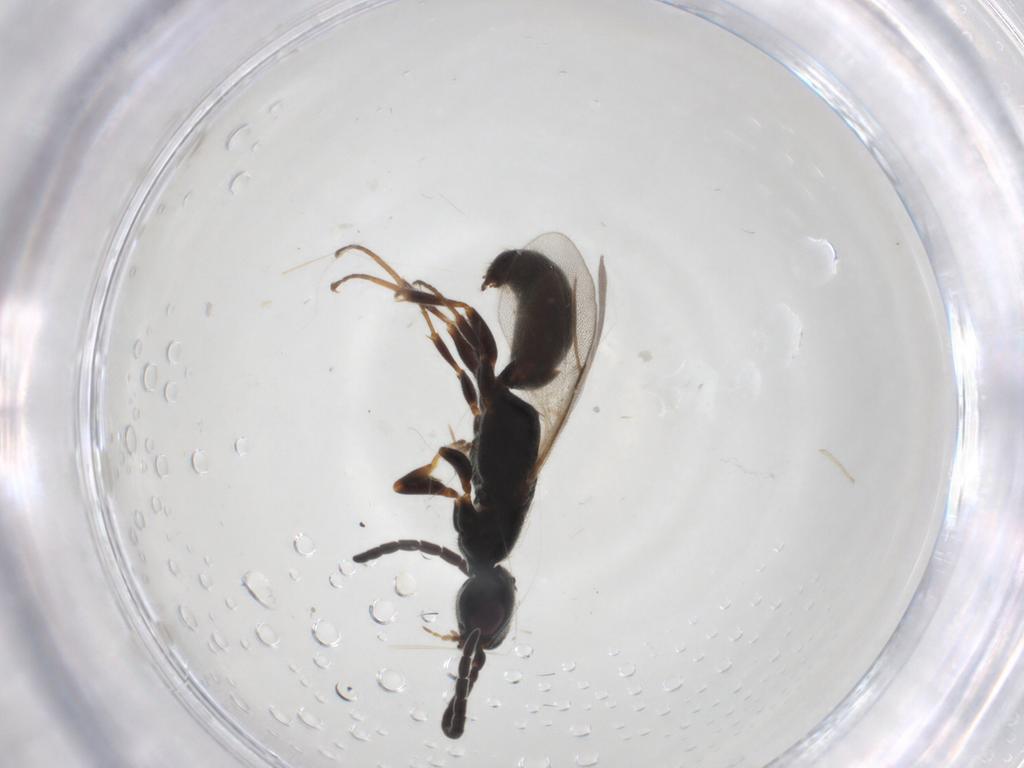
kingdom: Animalia
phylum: Arthropoda
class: Insecta
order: Hymenoptera
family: Bethylidae
